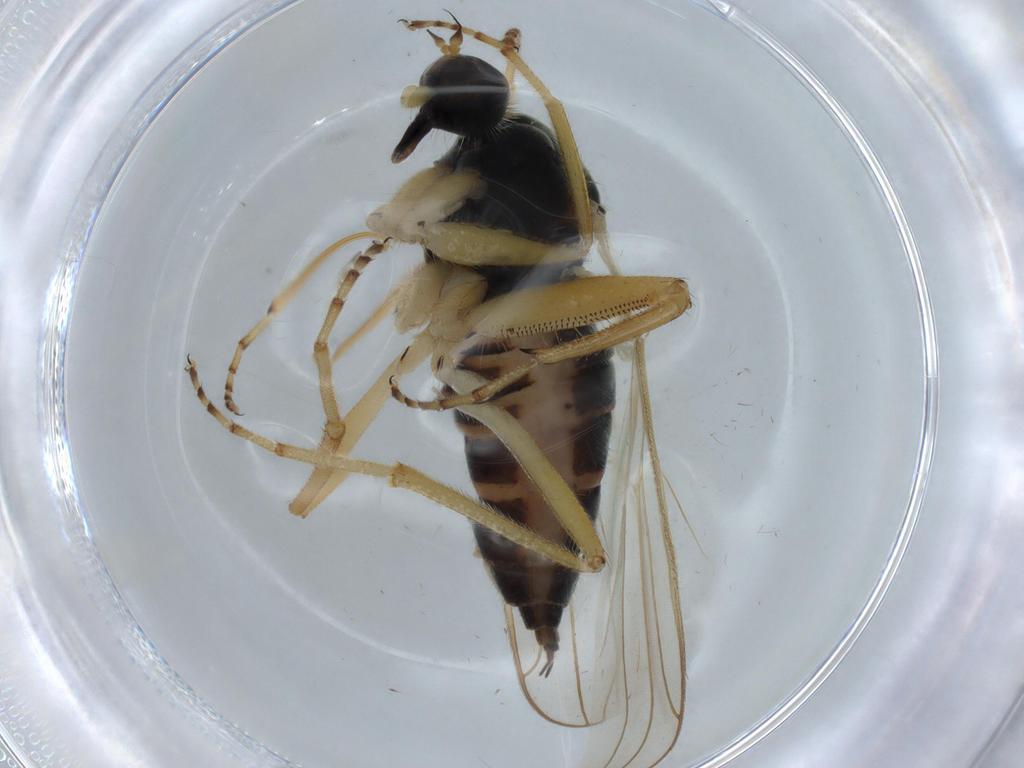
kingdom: Animalia
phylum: Arthropoda
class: Insecta
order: Diptera
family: Hybotidae
